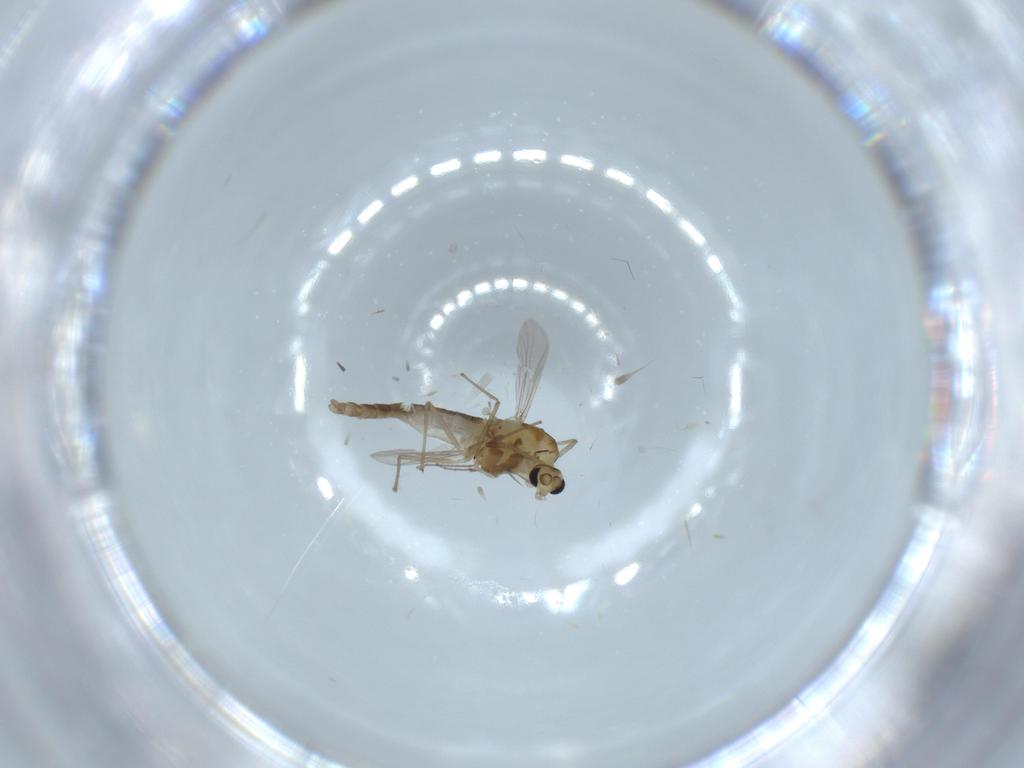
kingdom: Animalia
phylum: Arthropoda
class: Insecta
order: Diptera
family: Chironomidae
